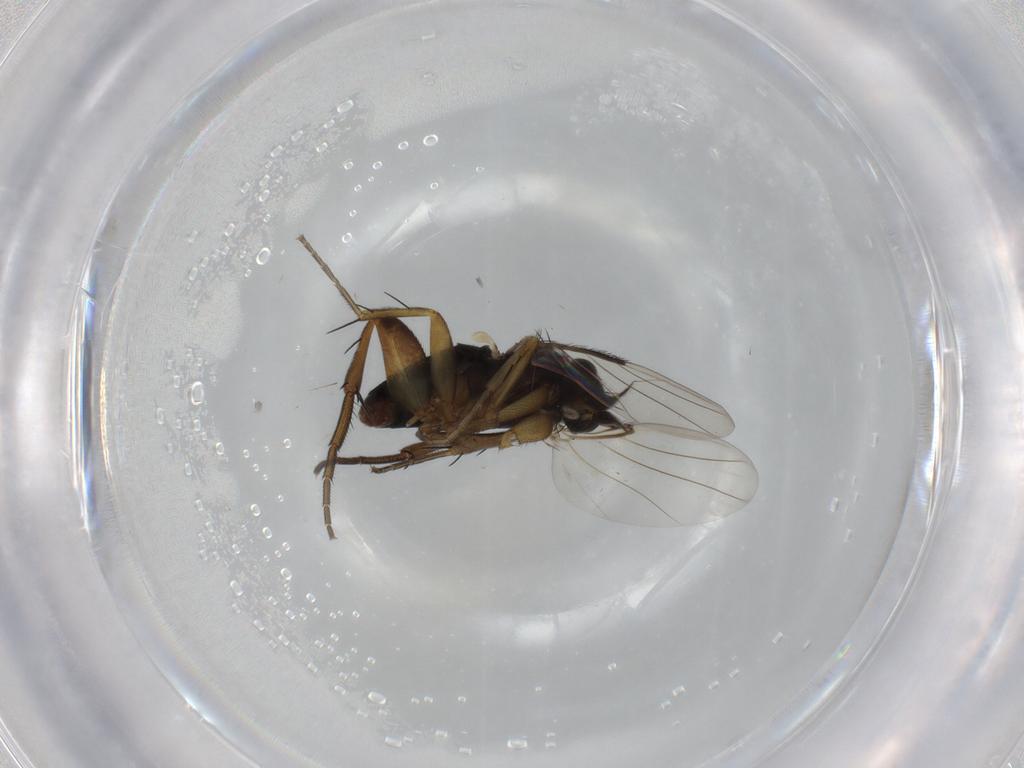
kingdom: Animalia
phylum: Arthropoda
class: Insecta
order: Diptera
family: Phoridae
